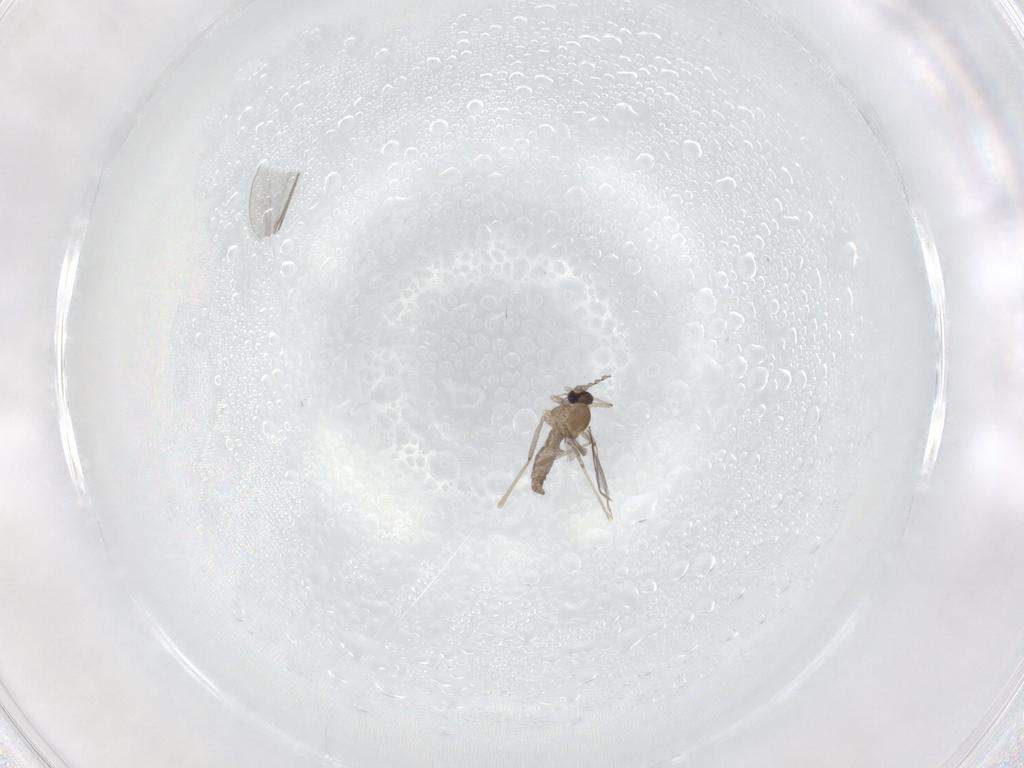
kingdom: Animalia
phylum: Arthropoda
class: Insecta
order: Diptera
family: Cecidomyiidae
